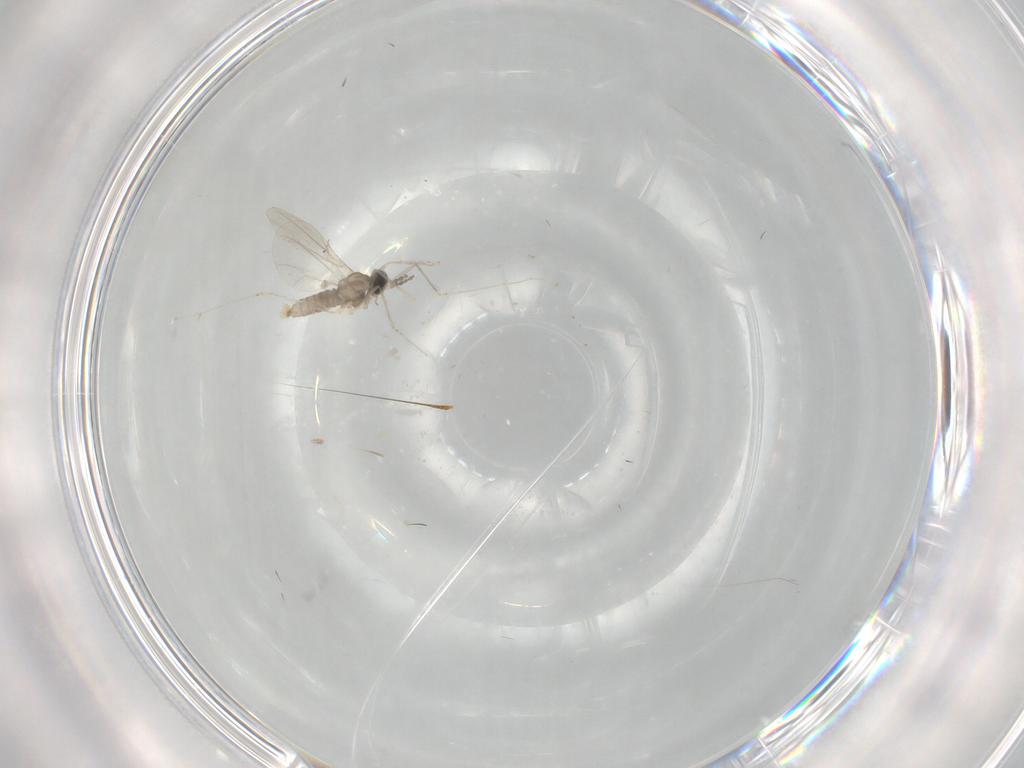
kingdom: Animalia
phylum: Arthropoda
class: Insecta
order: Diptera
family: Cecidomyiidae
